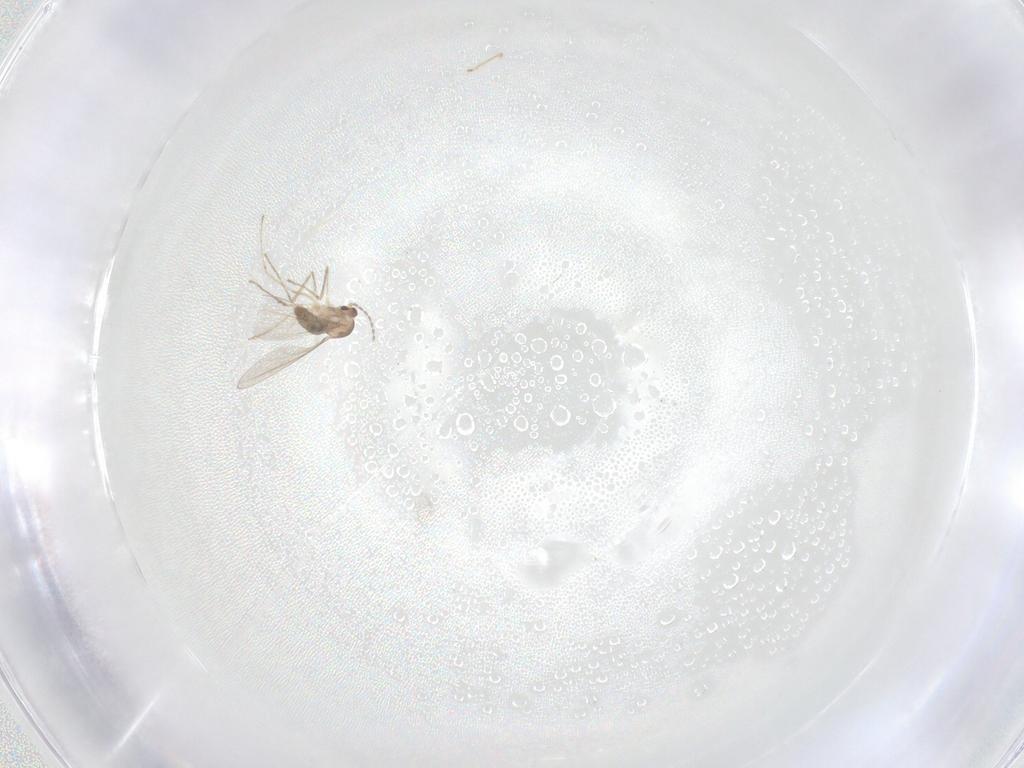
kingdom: Animalia
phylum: Arthropoda
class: Insecta
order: Diptera
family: Cecidomyiidae
